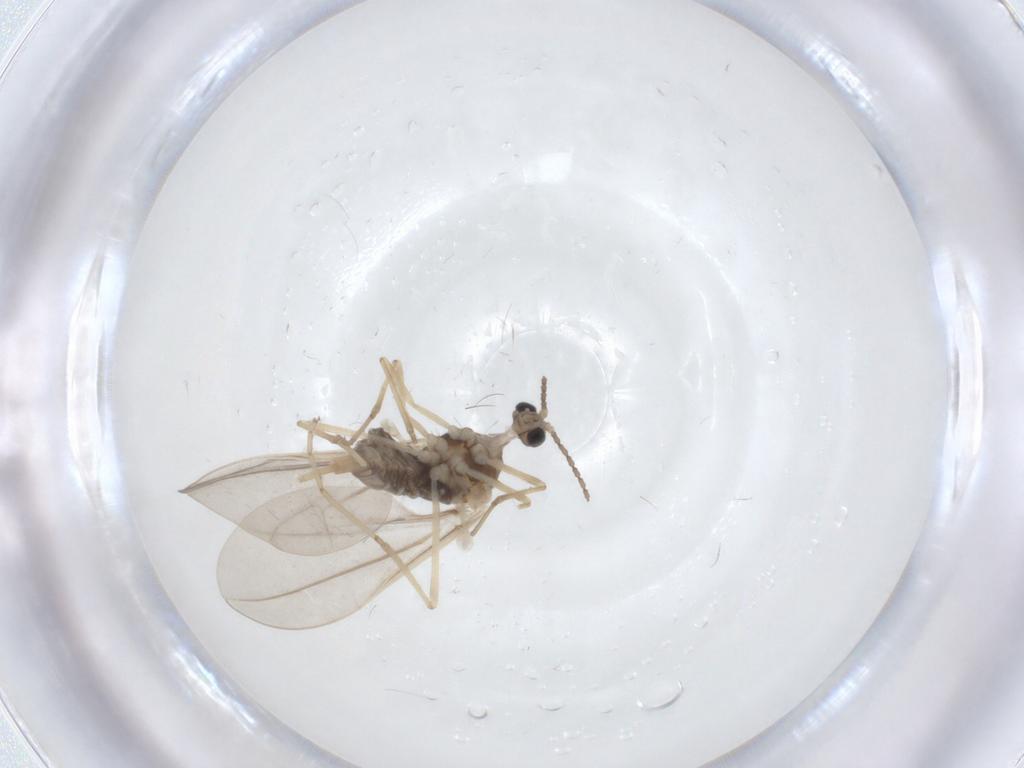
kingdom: Animalia
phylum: Arthropoda
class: Insecta
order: Diptera
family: Cecidomyiidae
